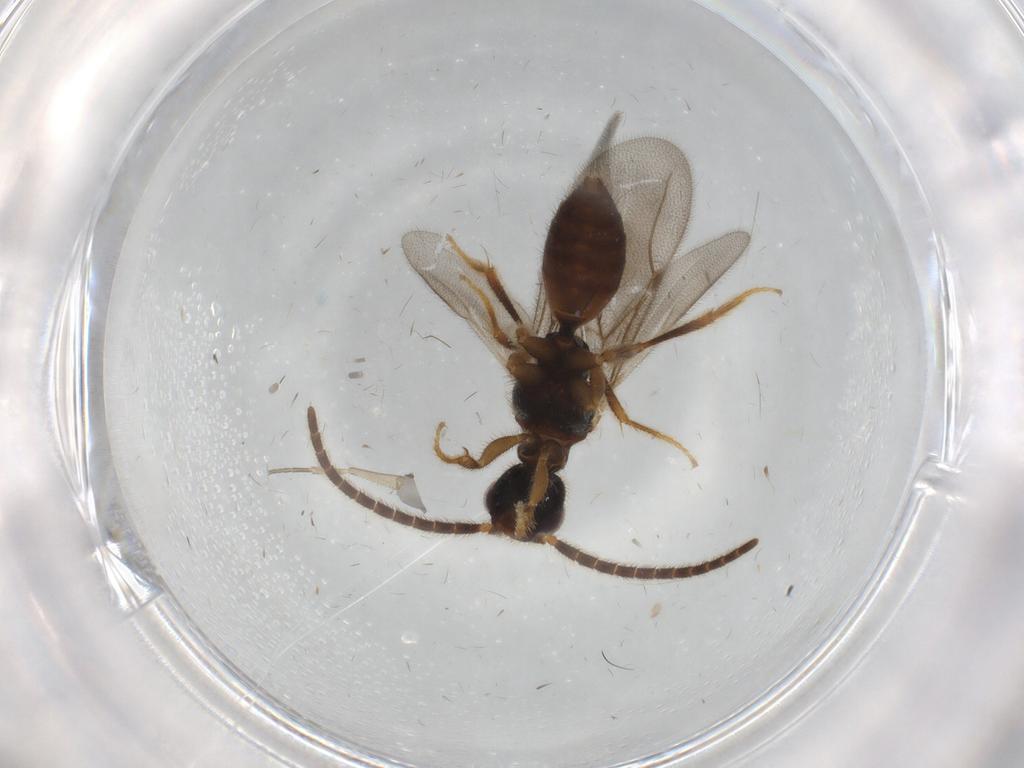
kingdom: Animalia
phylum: Arthropoda
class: Insecta
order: Hymenoptera
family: Bethylidae
